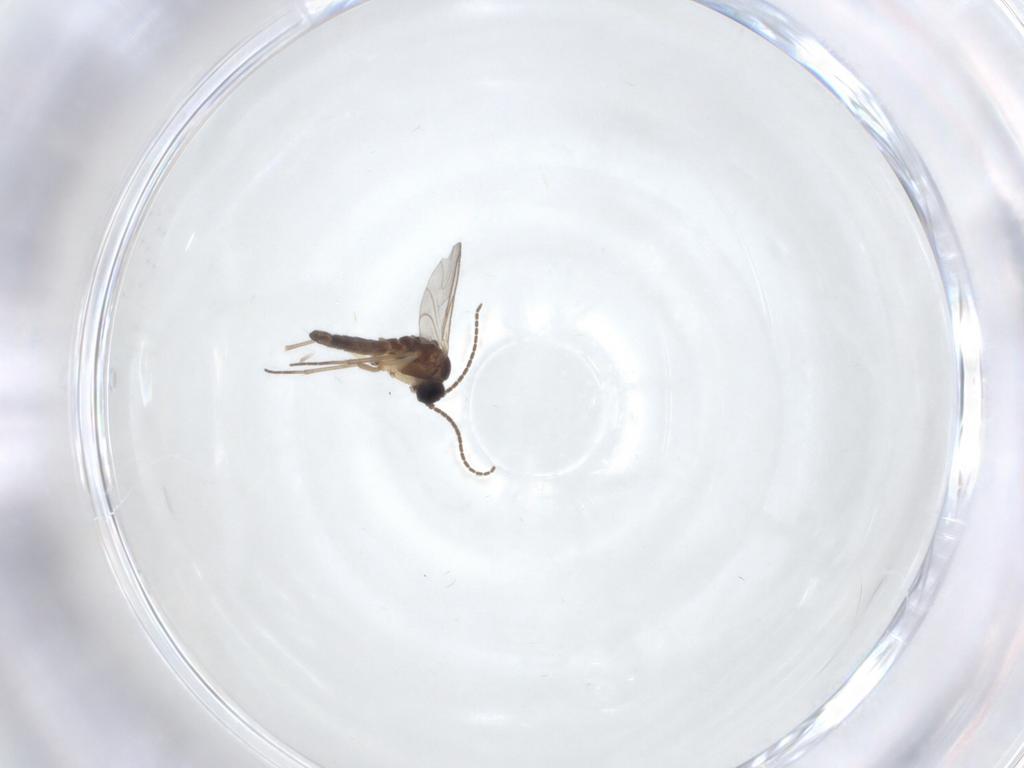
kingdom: Animalia
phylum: Arthropoda
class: Insecta
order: Diptera
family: Sciaridae
